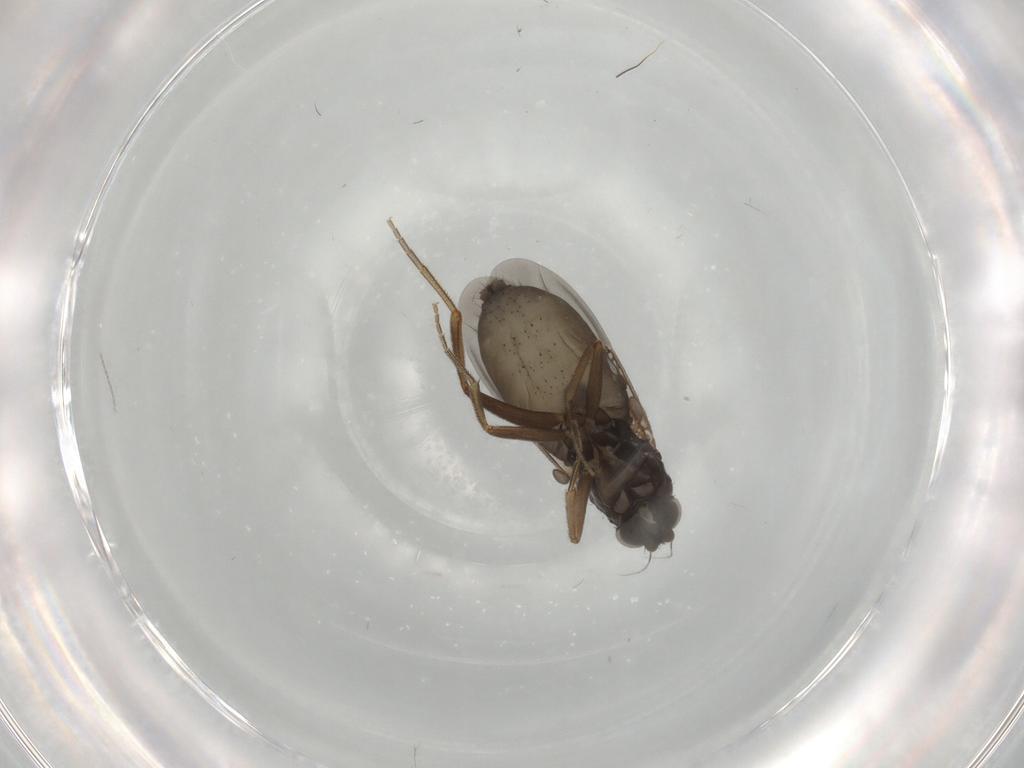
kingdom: Animalia
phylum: Arthropoda
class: Insecta
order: Diptera
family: Phoridae
